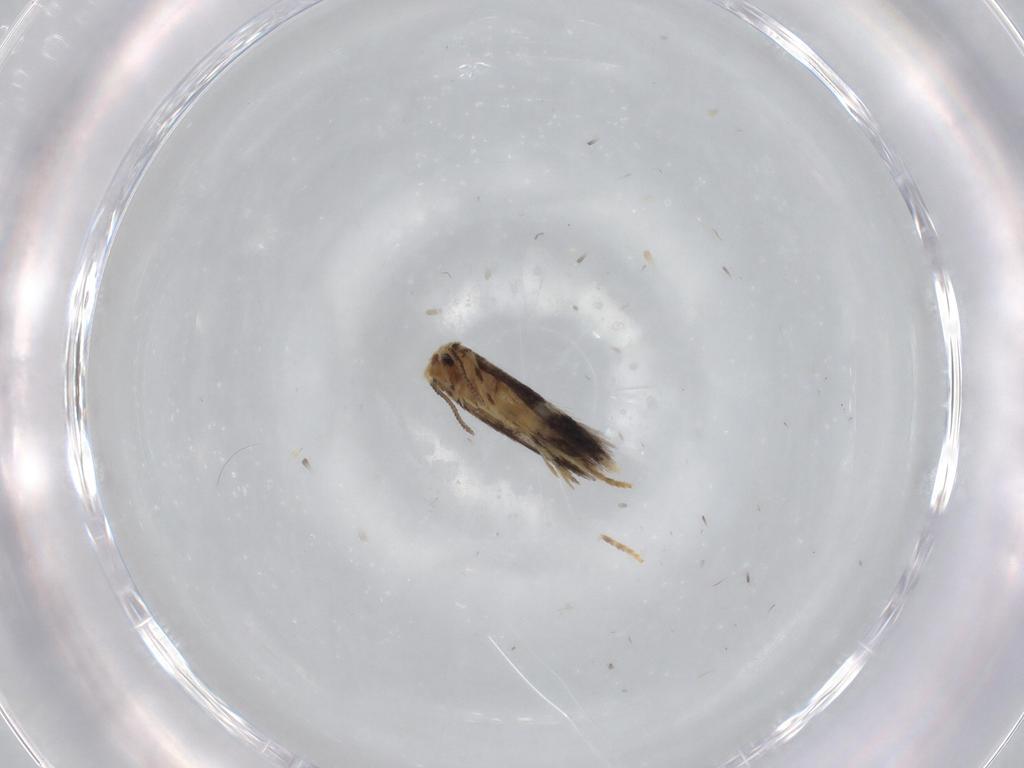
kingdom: Animalia
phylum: Arthropoda
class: Insecta
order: Lepidoptera
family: Nepticulidae
